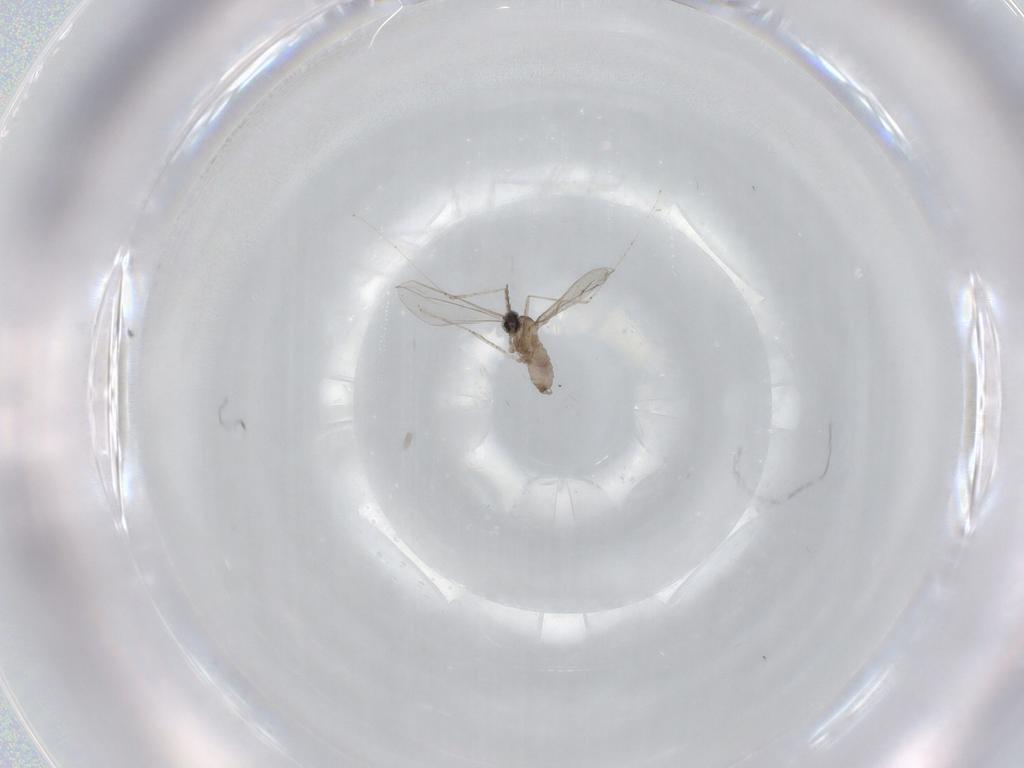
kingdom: Animalia
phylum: Arthropoda
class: Insecta
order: Diptera
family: Cecidomyiidae
